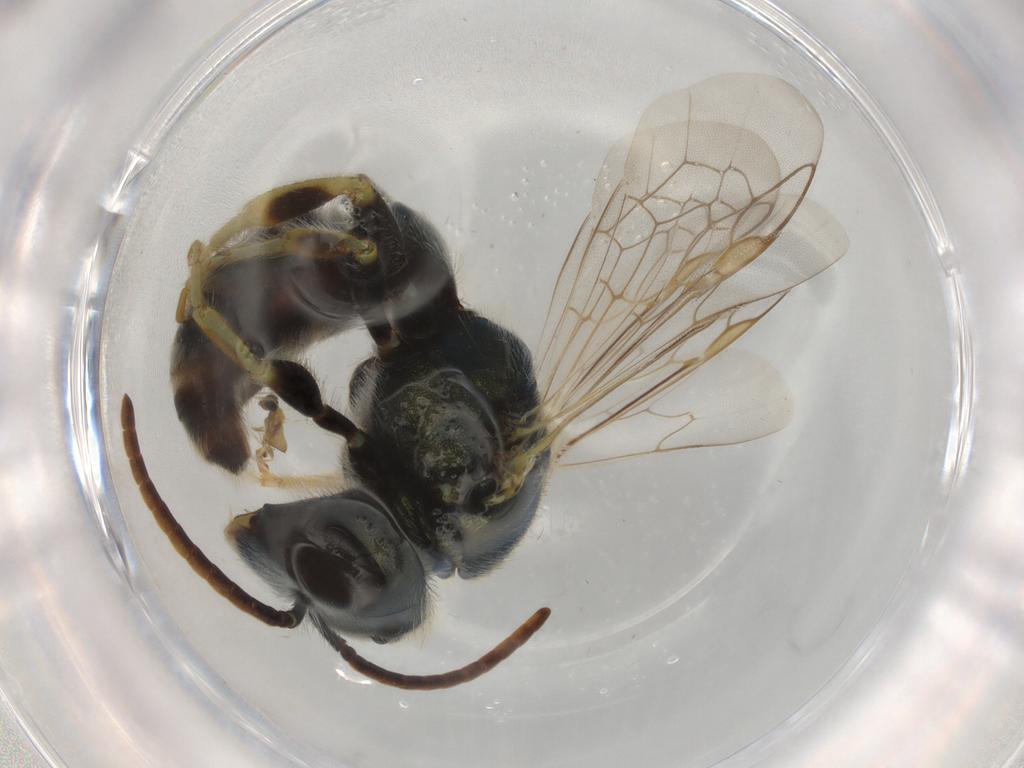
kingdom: Animalia
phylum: Arthropoda
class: Insecta
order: Hymenoptera
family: Halictidae
